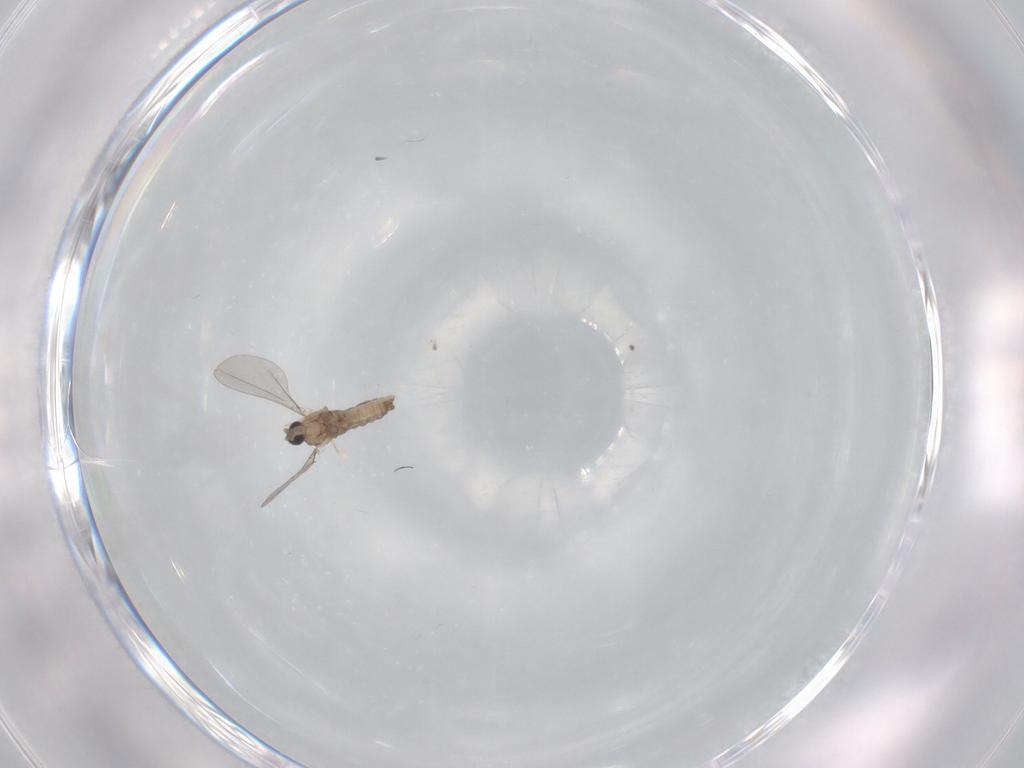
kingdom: Animalia
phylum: Arthropoda
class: Insecta
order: Diptera
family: Phoridae
